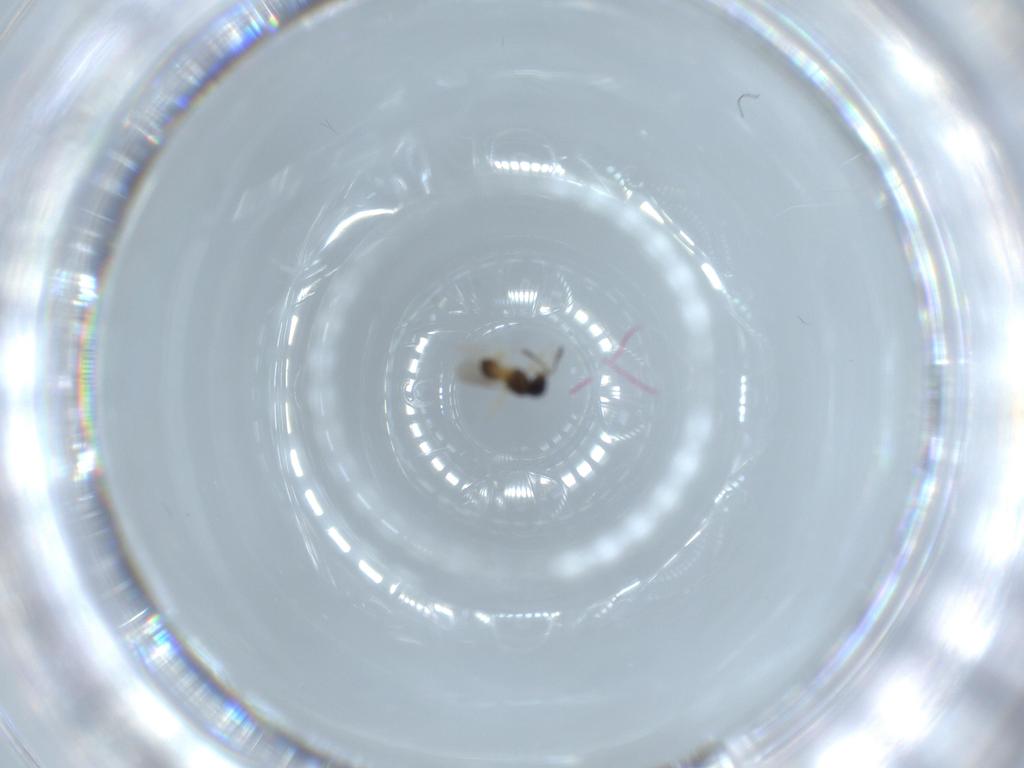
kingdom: Animalia
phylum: Arthropoda
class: Insecta
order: Hymenoptera
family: Scelionidae
